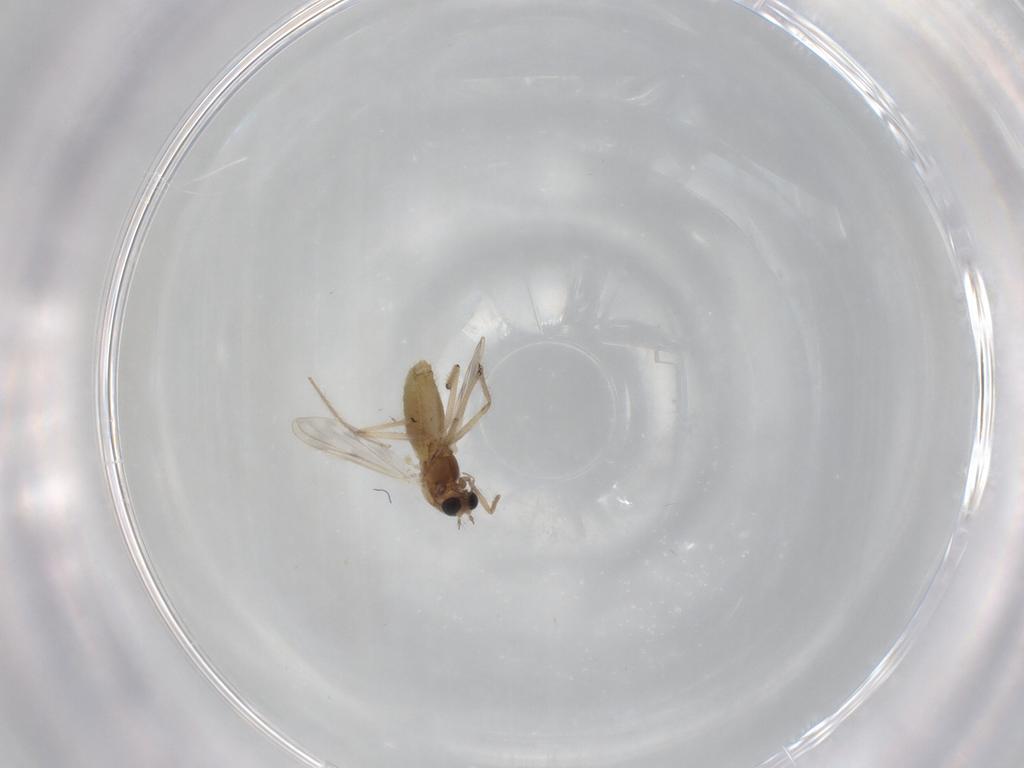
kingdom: Animalia
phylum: Arthropoda
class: Insecta
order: Diptera
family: Chironomidae
